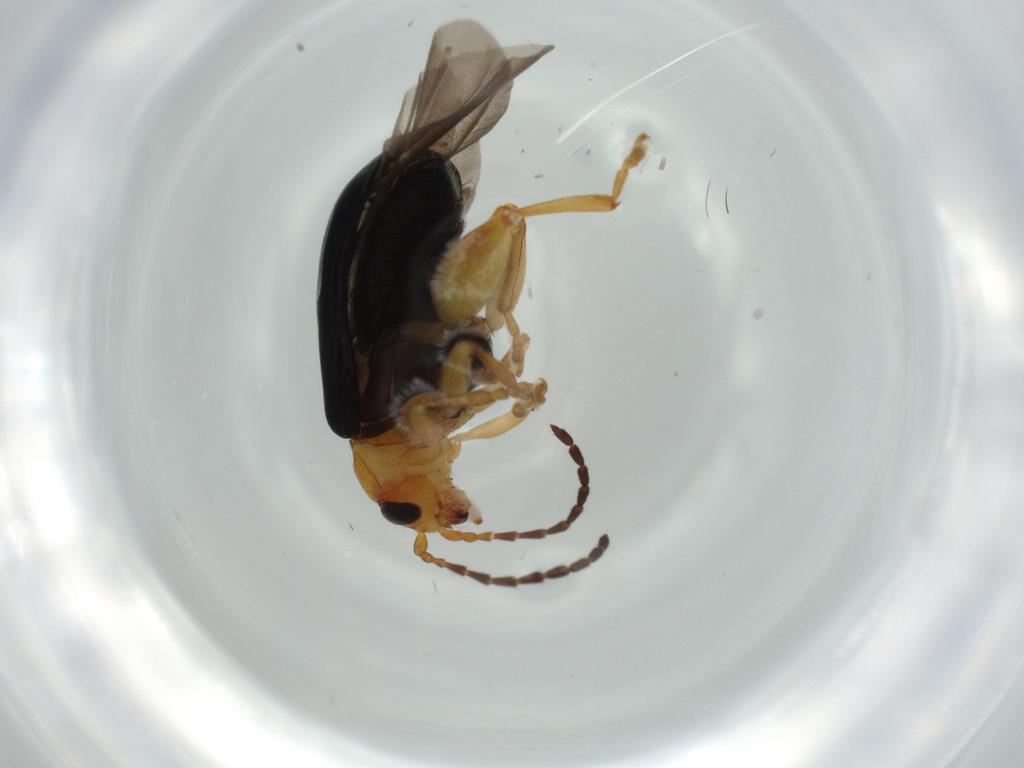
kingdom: Animalia
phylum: Arthropoda
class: Insecta
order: Coleoptera
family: Chrysomelidae
